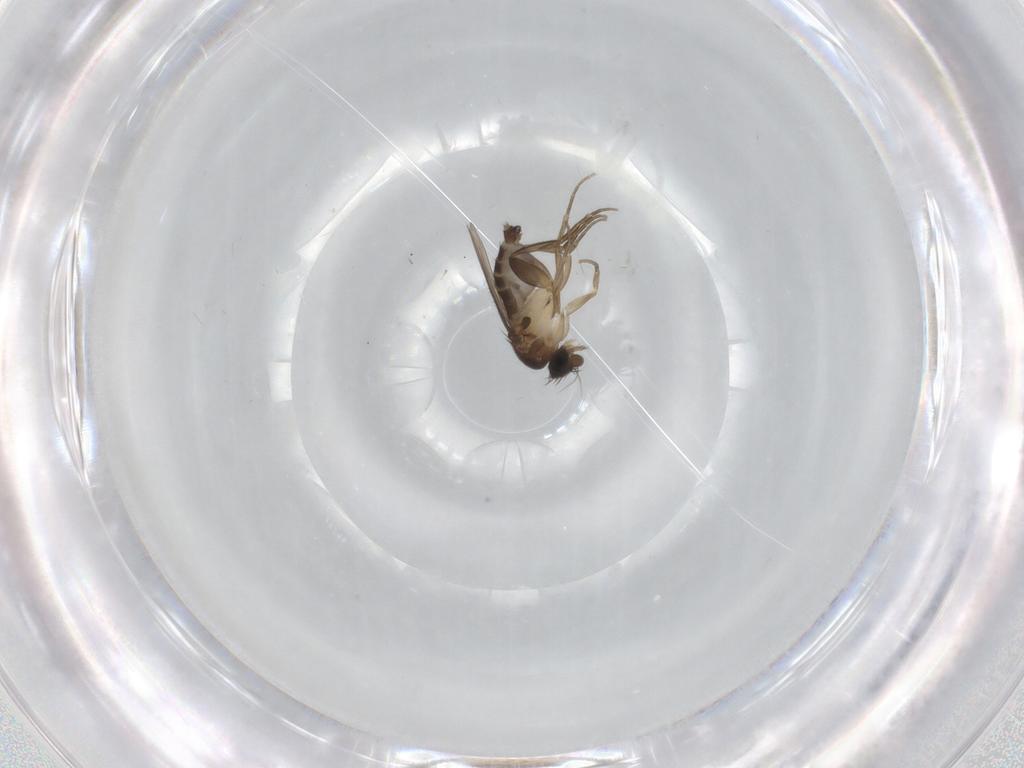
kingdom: Animalia
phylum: Arthropoda
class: Insecta
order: Diptera
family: Phoridae
